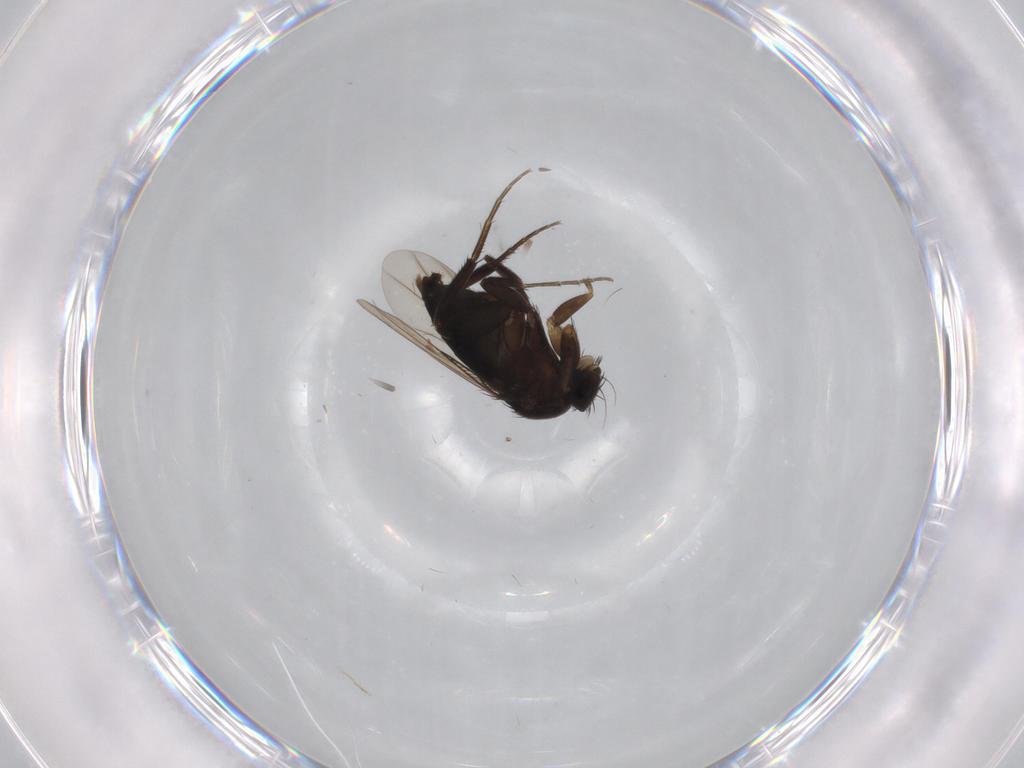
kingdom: Animalia
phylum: Arthropoda
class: Insecta
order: Diptera
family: Phoridae
